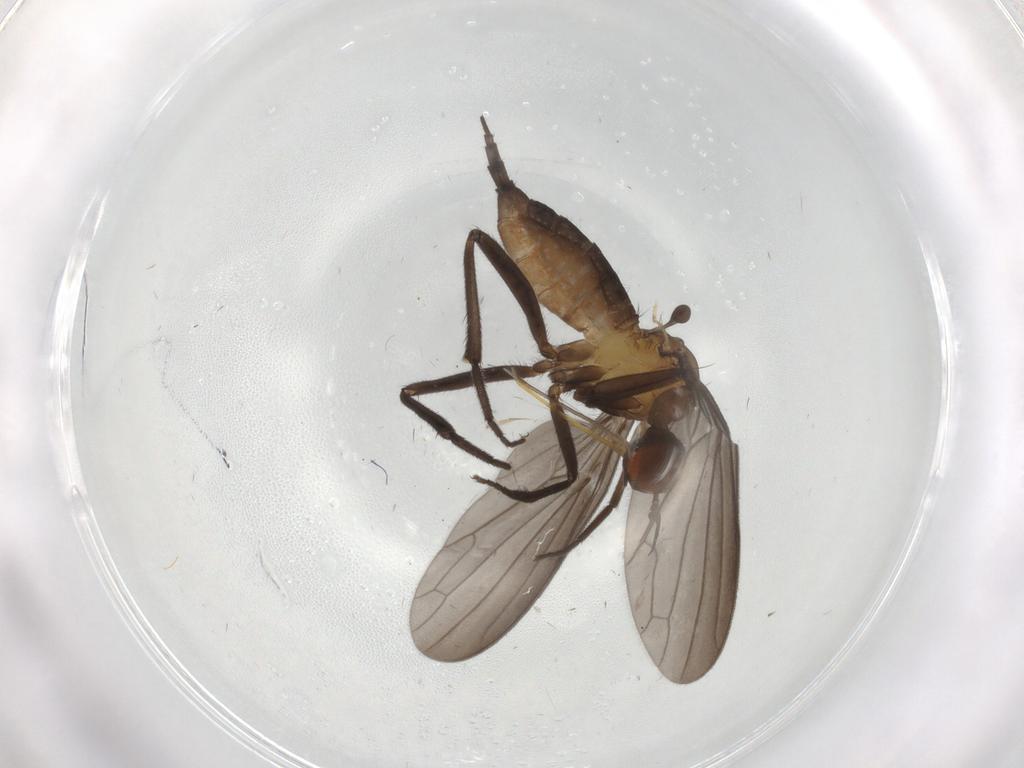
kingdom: Animalia
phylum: Arthropoda
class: Insecta
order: Diptera
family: Empididae
